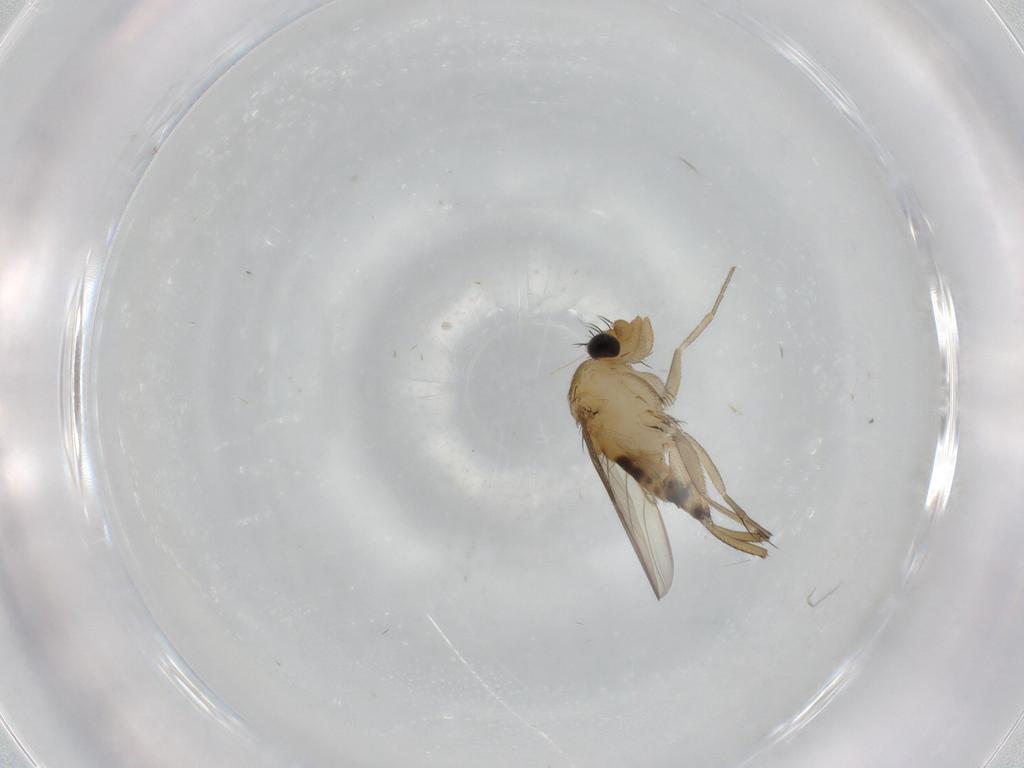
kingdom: Animalia
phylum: Arthropoda
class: Insecta
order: Diptera
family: Phoridae
